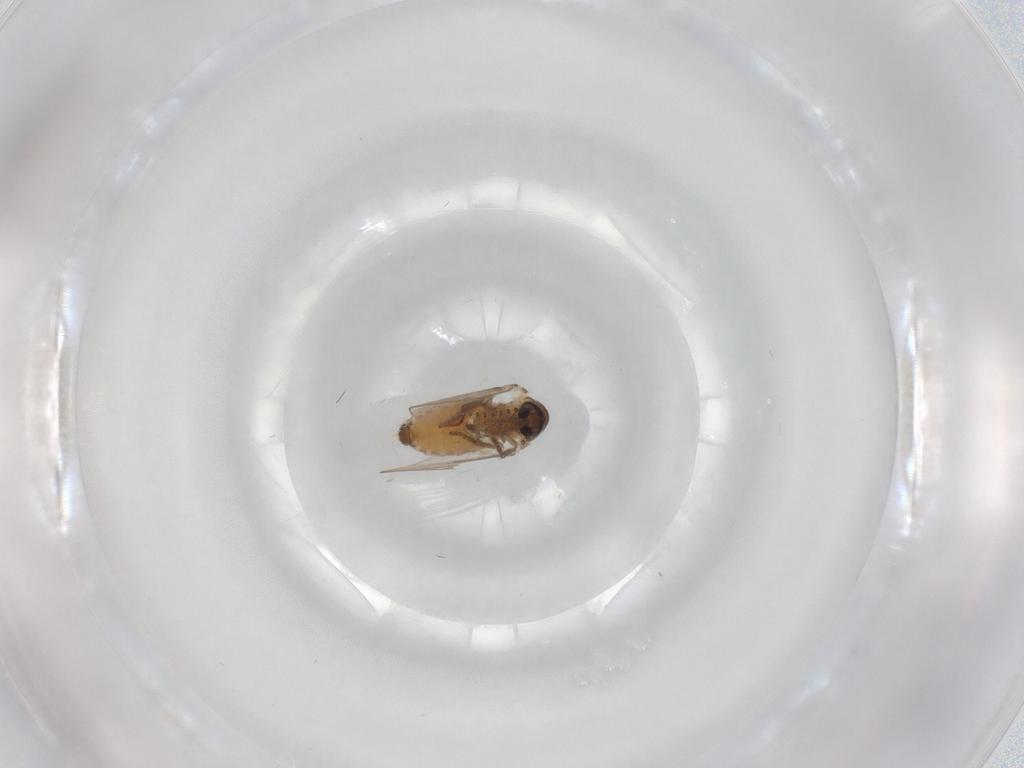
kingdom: Animalia
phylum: Arthropoda
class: Insecta
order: Diptera
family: Psychodidae
